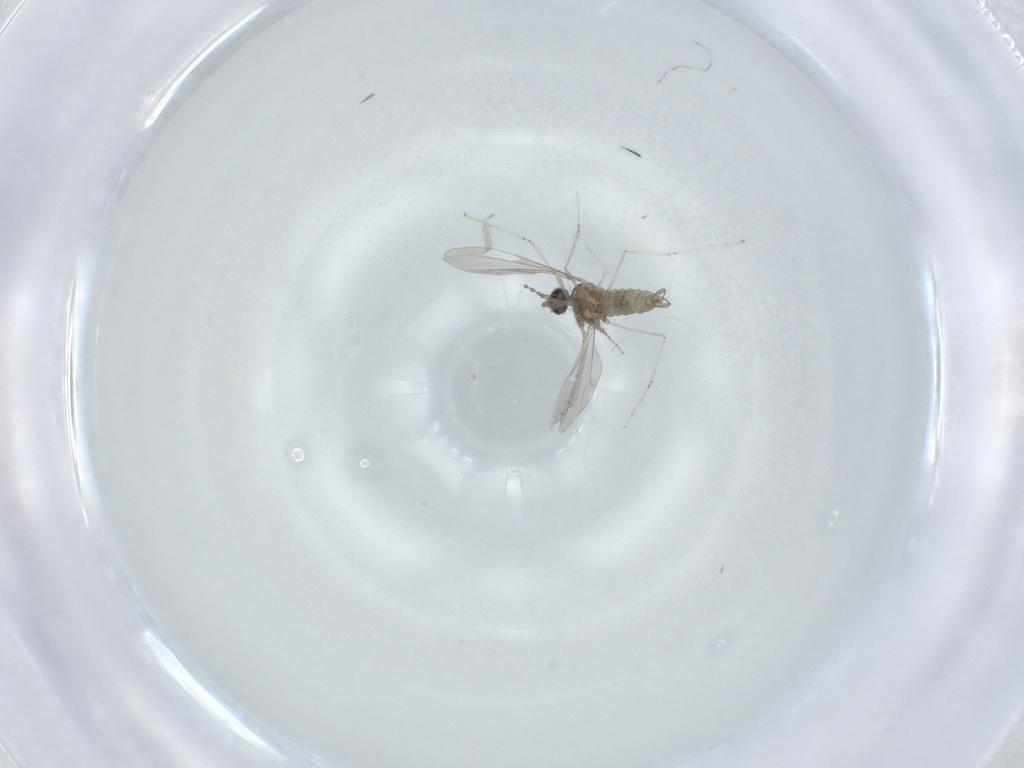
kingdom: Animalia
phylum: Arthropoda
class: Insecta
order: Diptera
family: Cecidomyiidae
